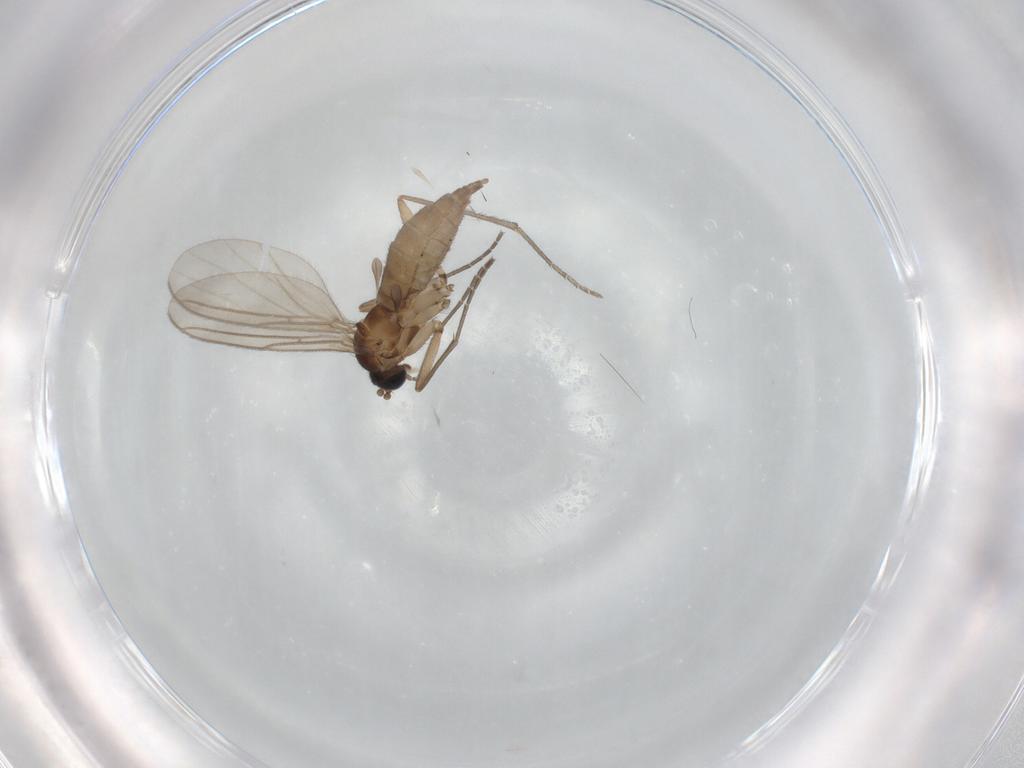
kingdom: Animalia
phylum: Arthropoda
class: Insecta
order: Diptera
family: Sciaridae
